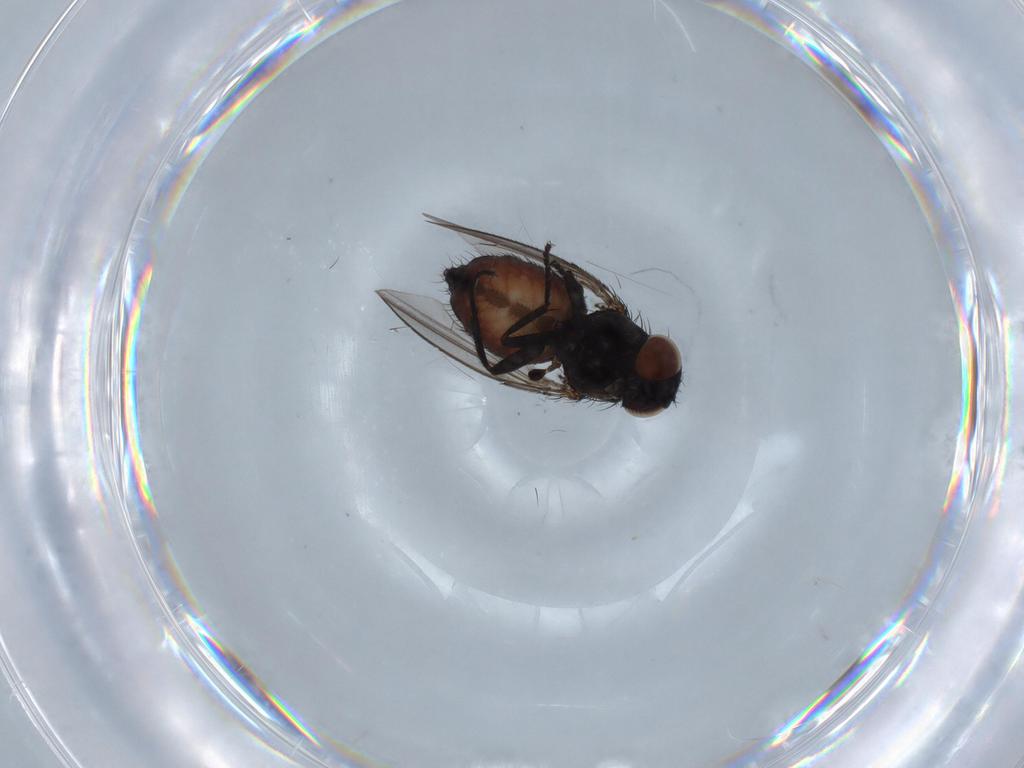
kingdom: Animalia
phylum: Arthropoda
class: Insecta
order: Diptera
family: Milichiidae
